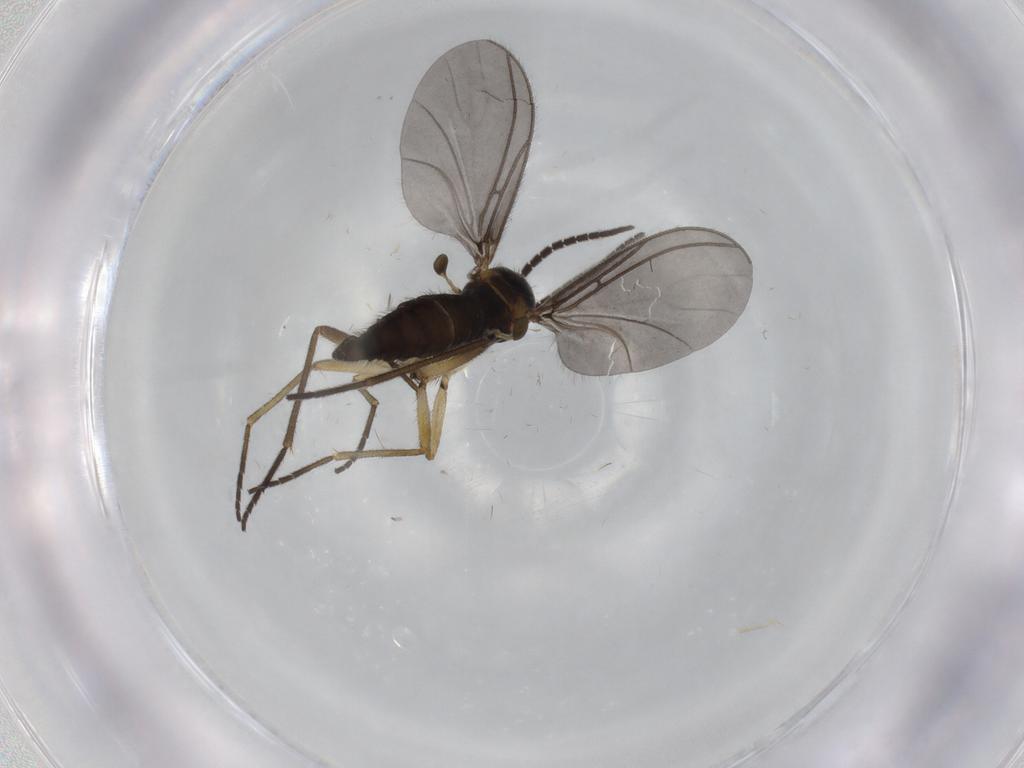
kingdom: Animalia
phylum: Arthropoda
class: Insecta
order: Diptera
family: Sciaridae
